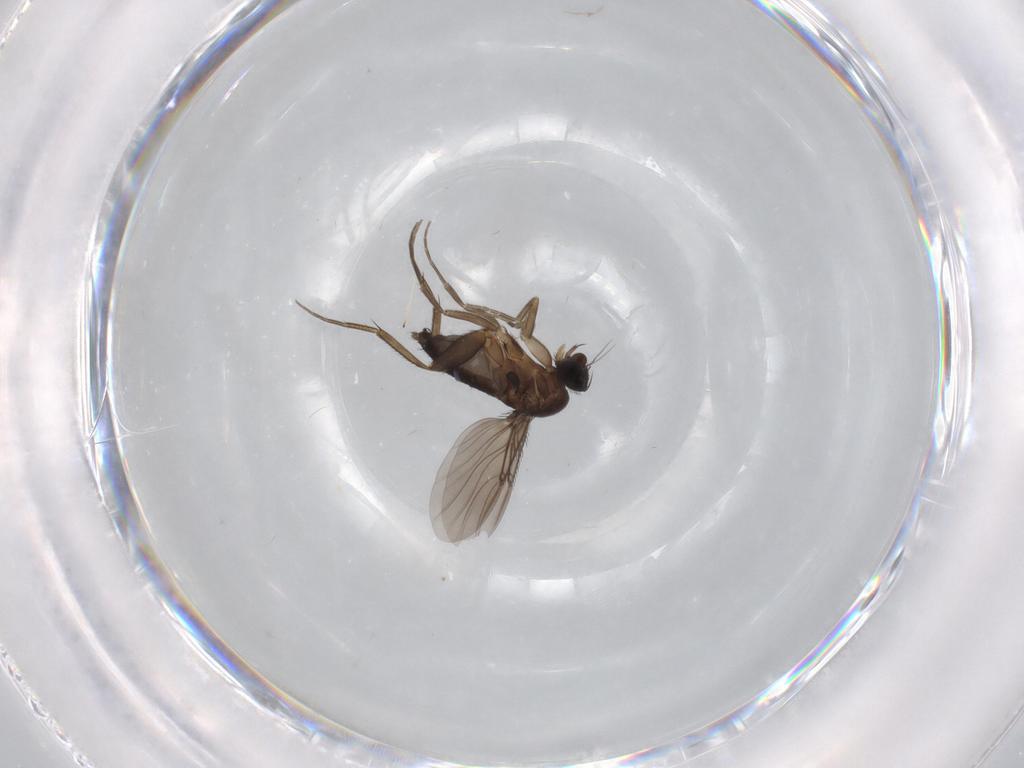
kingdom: Animalia
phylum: Arthropoda
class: Insecta
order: Diptera
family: Phoridae
